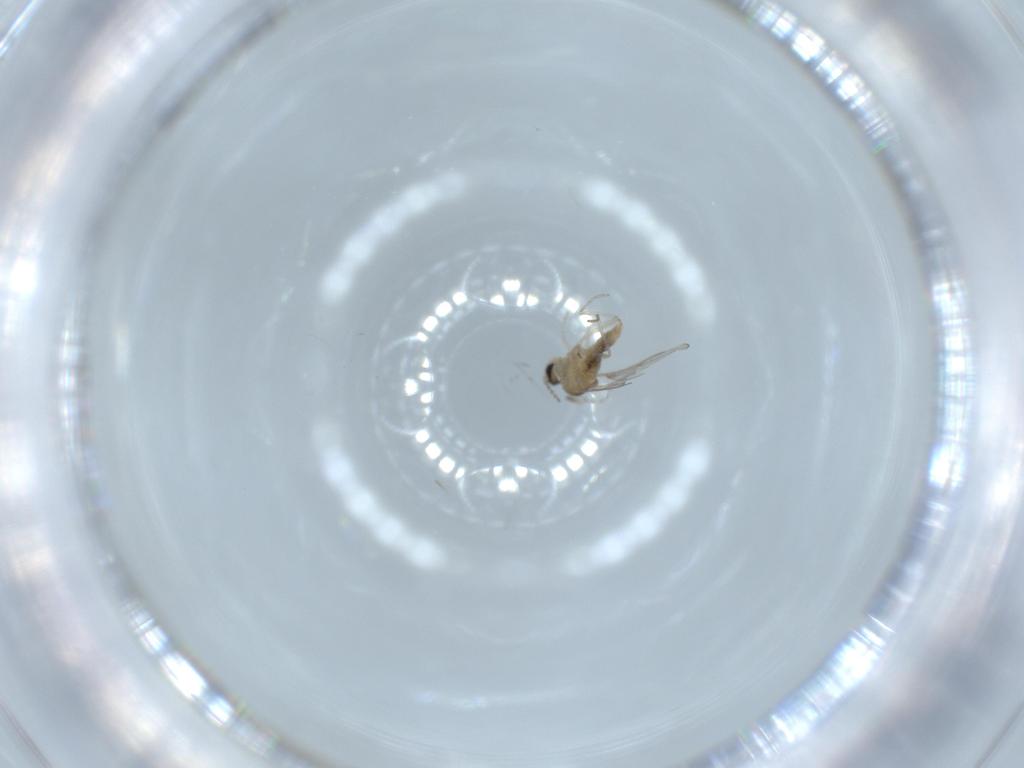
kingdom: Animalia
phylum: Arthropoda
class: Insecta
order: Diptera
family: Cecidomyiidae
